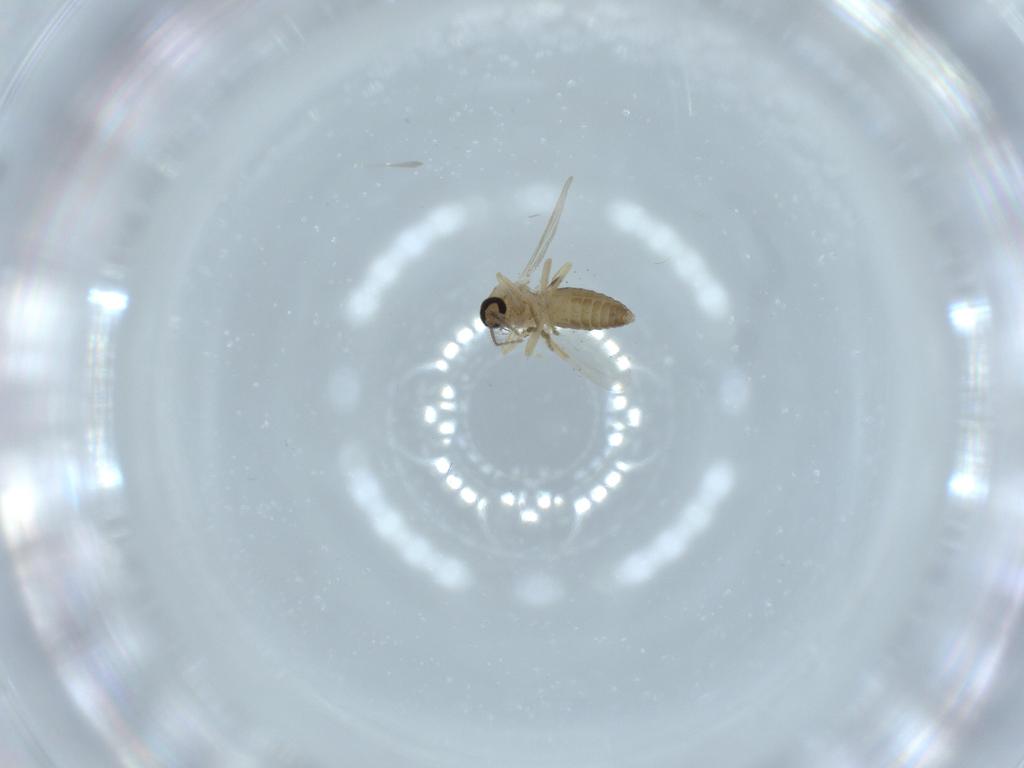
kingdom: Animalia
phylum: Arthropoda
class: Insecta
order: Diptera
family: Ceratopogonidae
